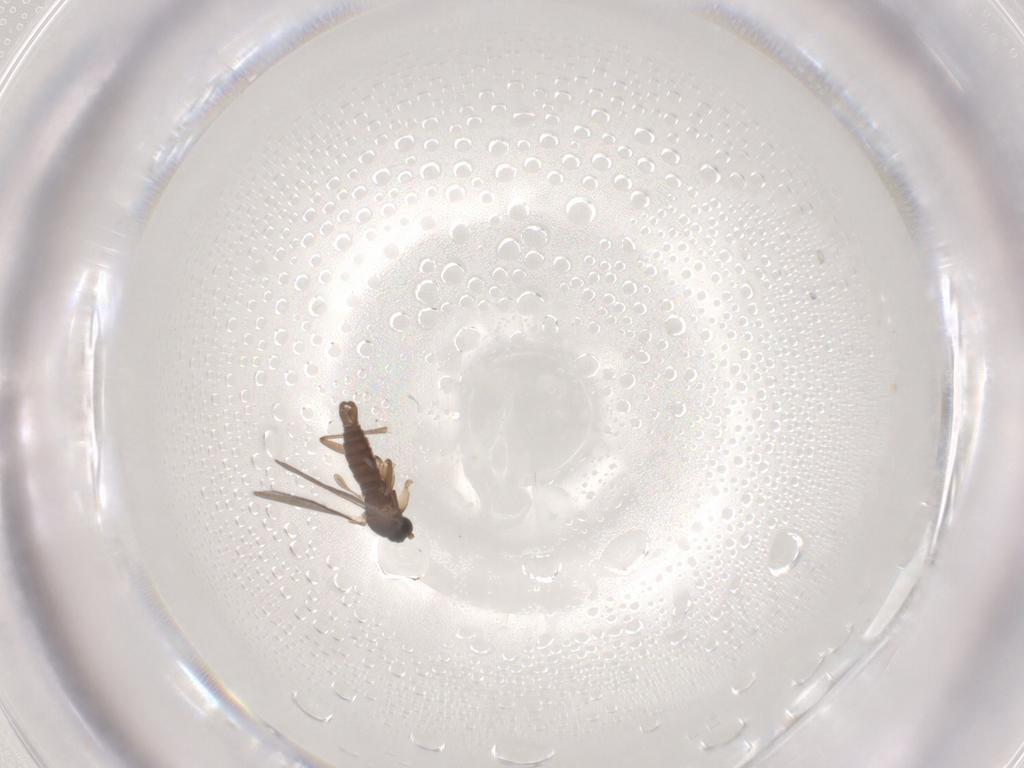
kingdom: Animalia
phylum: Arthropoda
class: Insecta
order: Diptera
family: Sciaridae
